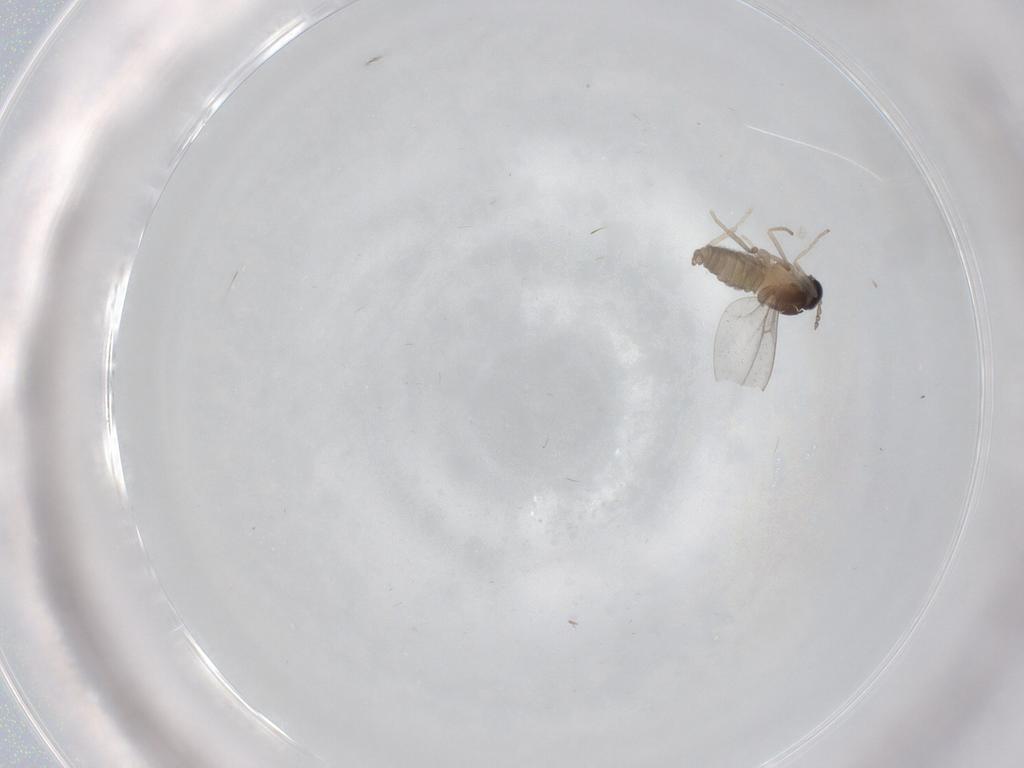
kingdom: Animalia
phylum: Arthropoda
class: Insecta
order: Diptera
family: Cecidomyiidae
